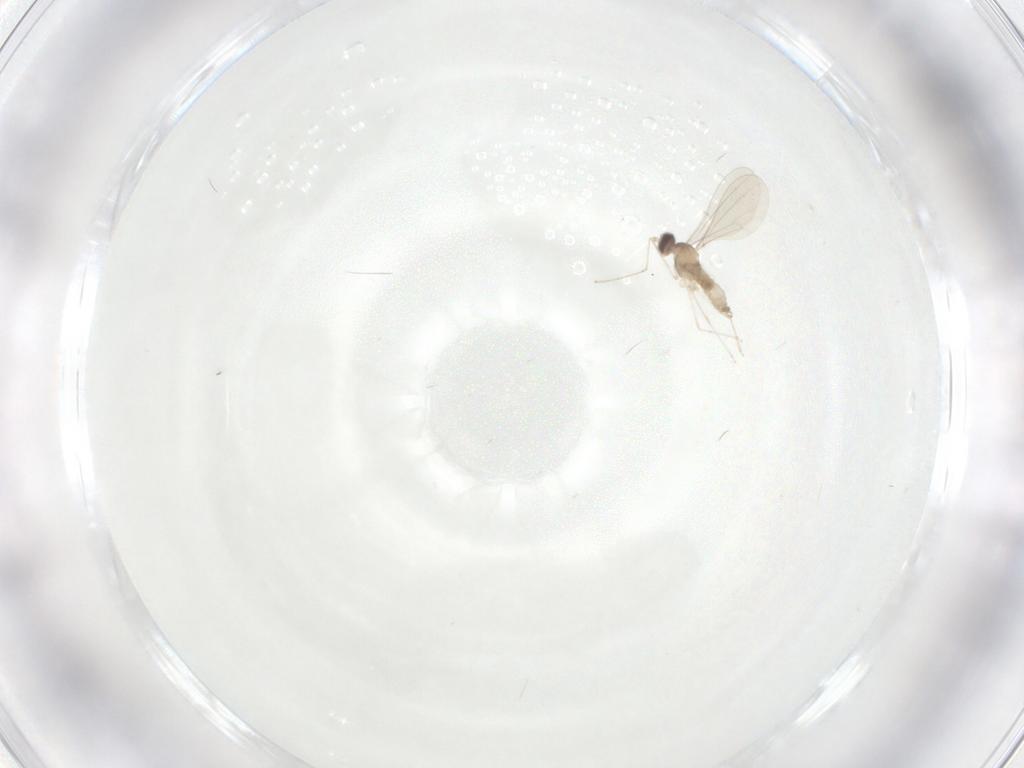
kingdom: Animalia
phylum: Arthropoda
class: Insecta
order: Diptera
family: Cecidomyiidae
